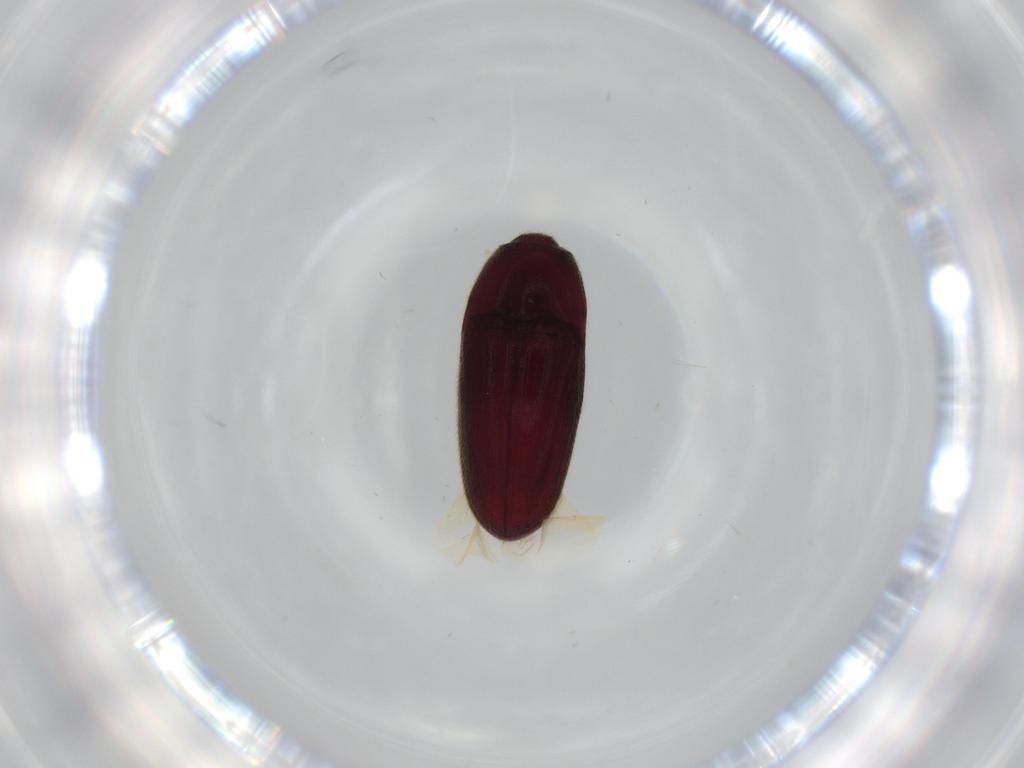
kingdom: Animalia
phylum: Arthropoda
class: Insecta
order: Coleoptera
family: Throscidae
